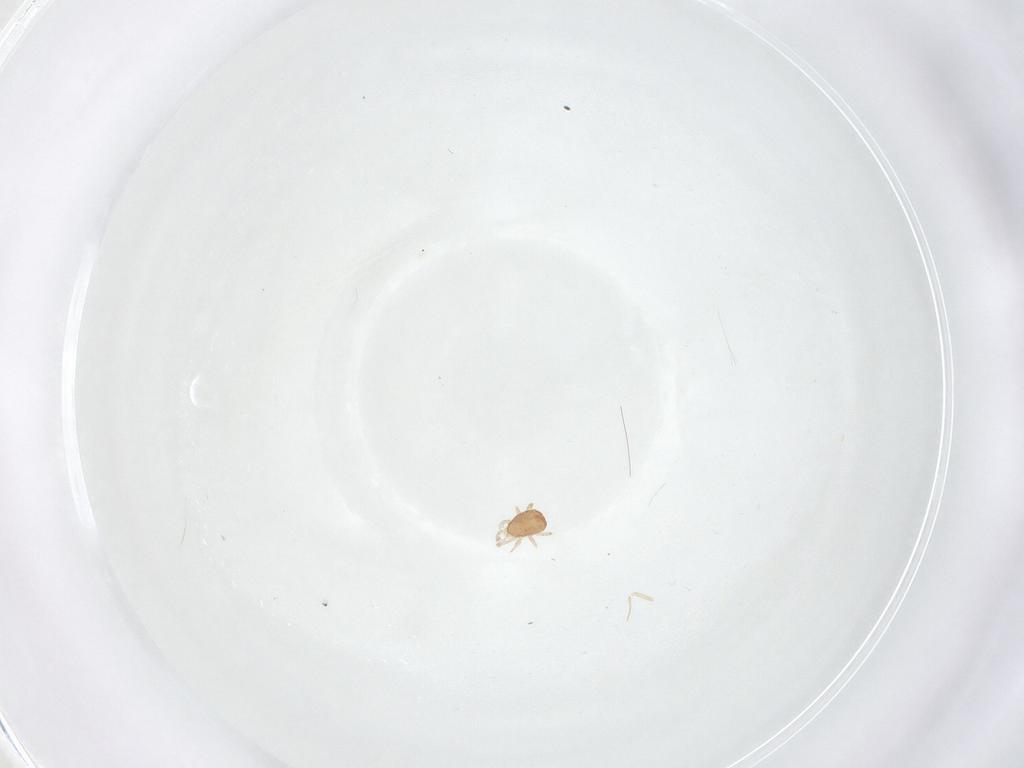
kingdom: Animalia
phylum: Arthropoda
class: Arachnida
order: Mesostigmata
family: Ascidae
